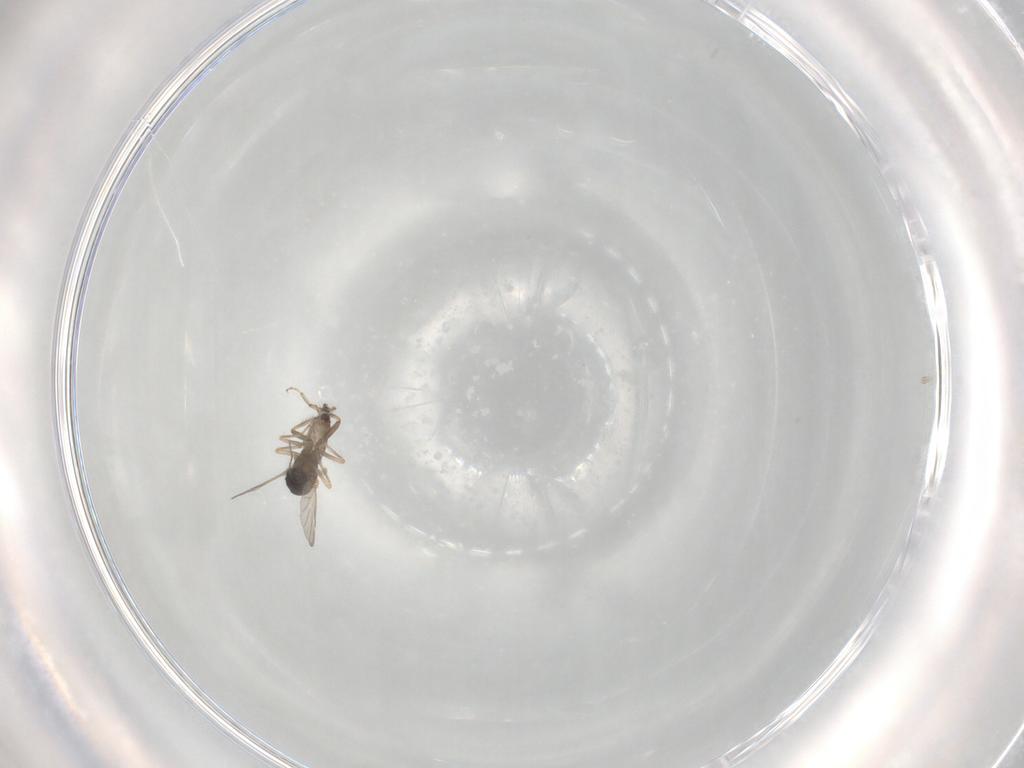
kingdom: Animalia
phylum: Arthropoda
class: Insecta
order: Diptera
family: Ceratopogonidae
